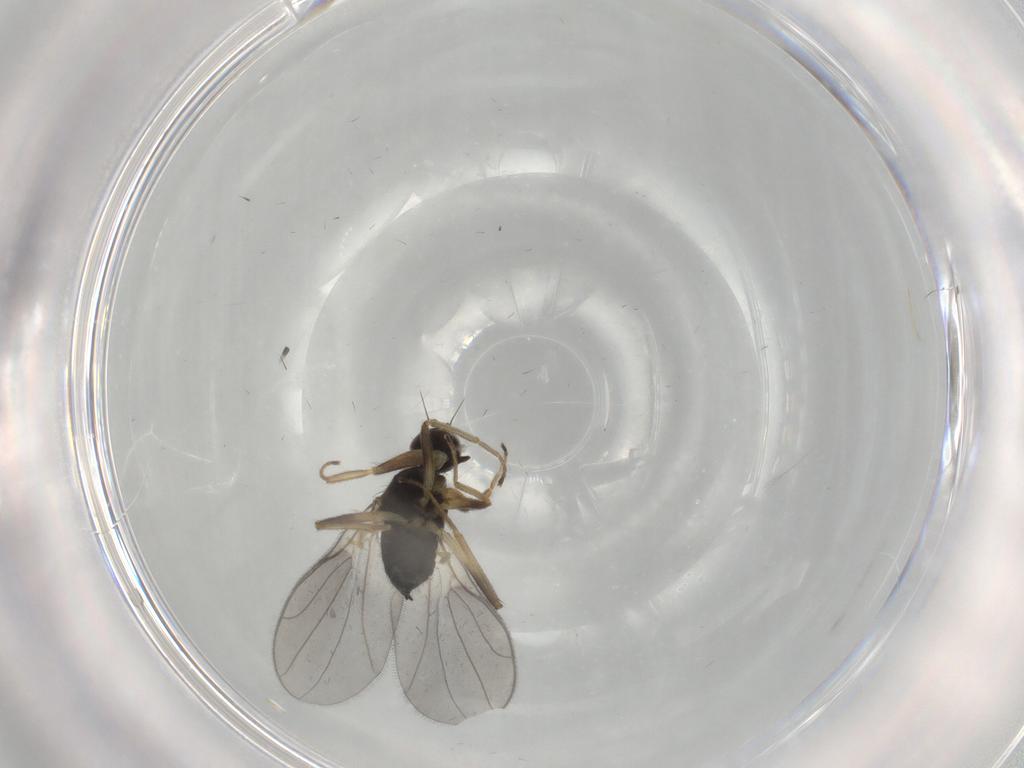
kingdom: Animalia
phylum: Arthropoda
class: Insecta
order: Diptera
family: Hybotidae
